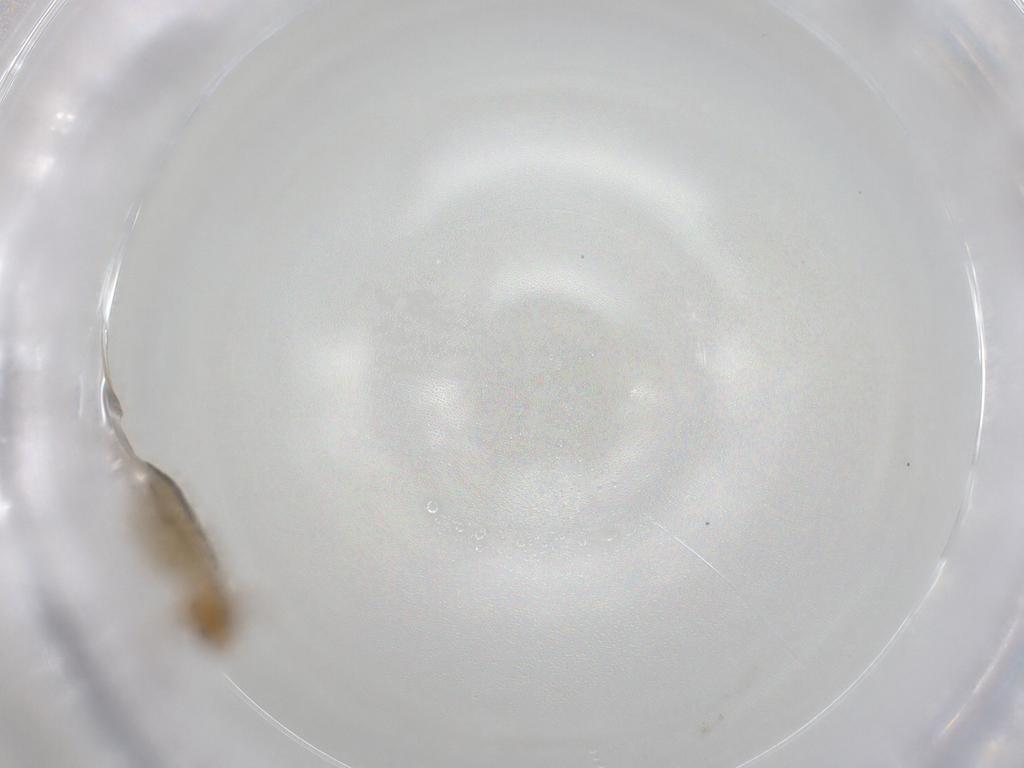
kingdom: Animalia
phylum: Arthropoda
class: Collembola
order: Entomobryomorpha
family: Entomobryidae
